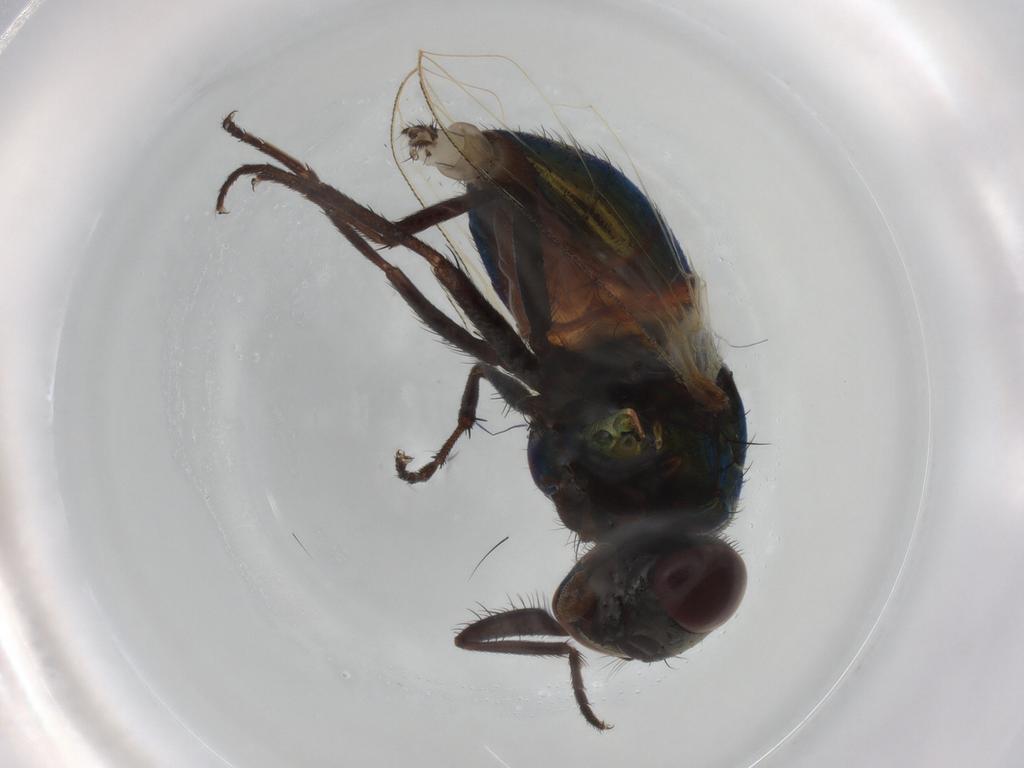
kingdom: Animalia
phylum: Arthropoda
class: Insecta
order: Diptera
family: Muscidae
